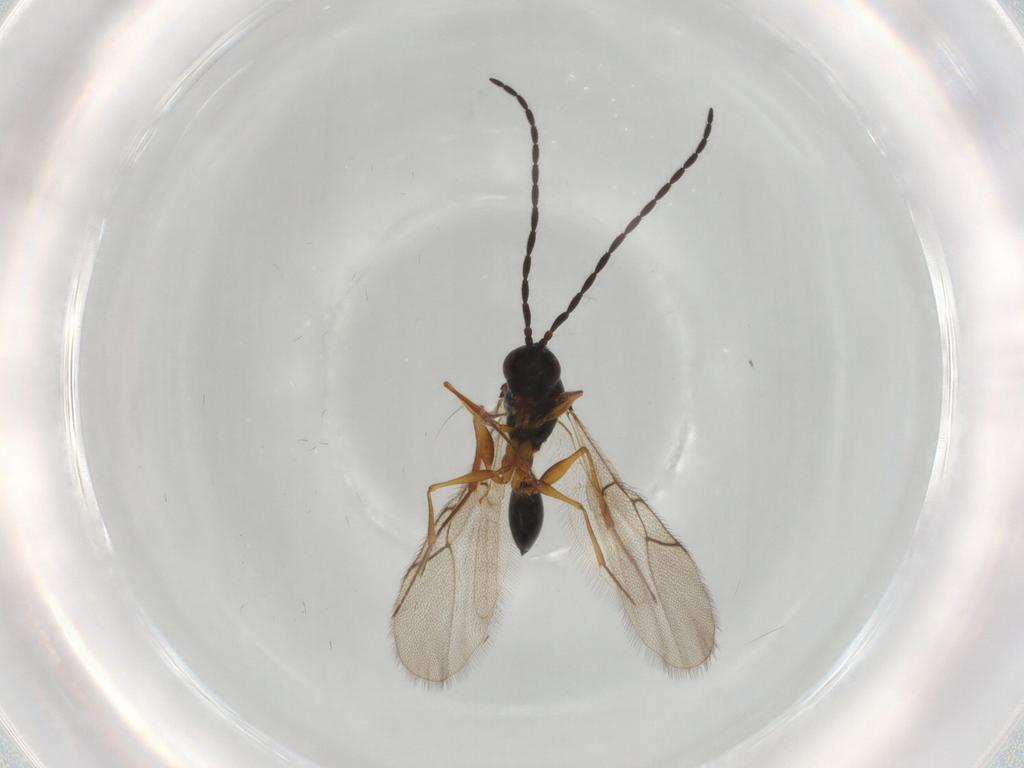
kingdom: Animalia
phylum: Arthropoda
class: Insecta
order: Hymenoptera
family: Figitidae
